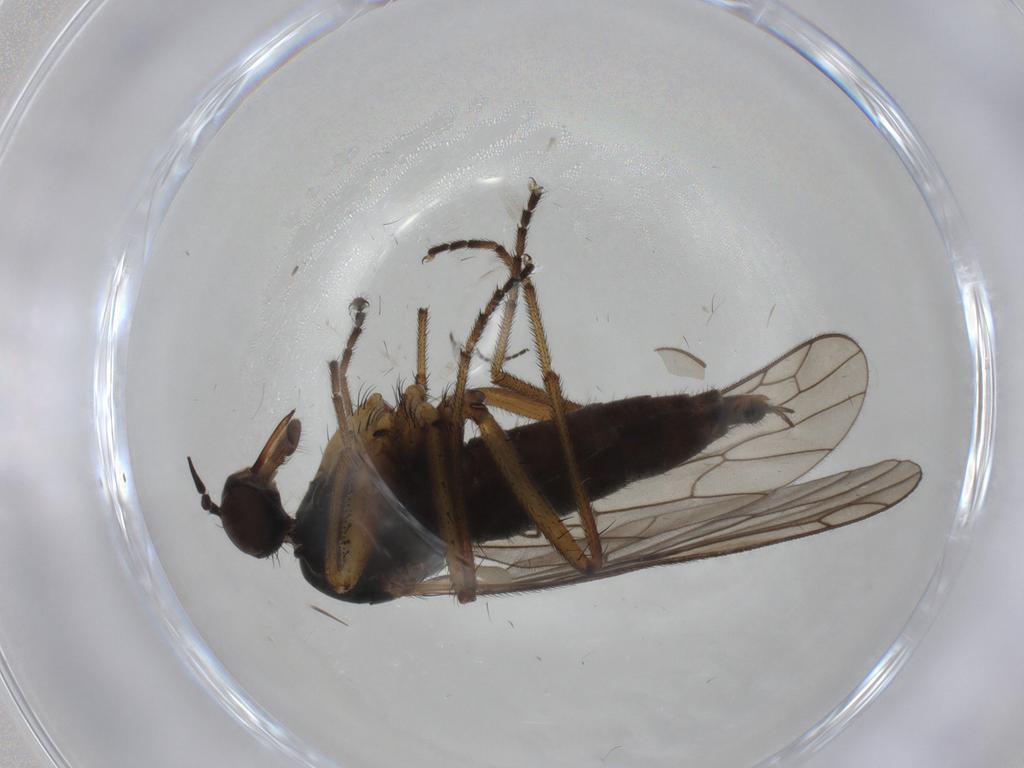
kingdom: Animalia
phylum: Arthropoda
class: Insecta
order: Diptera
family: Empididae
